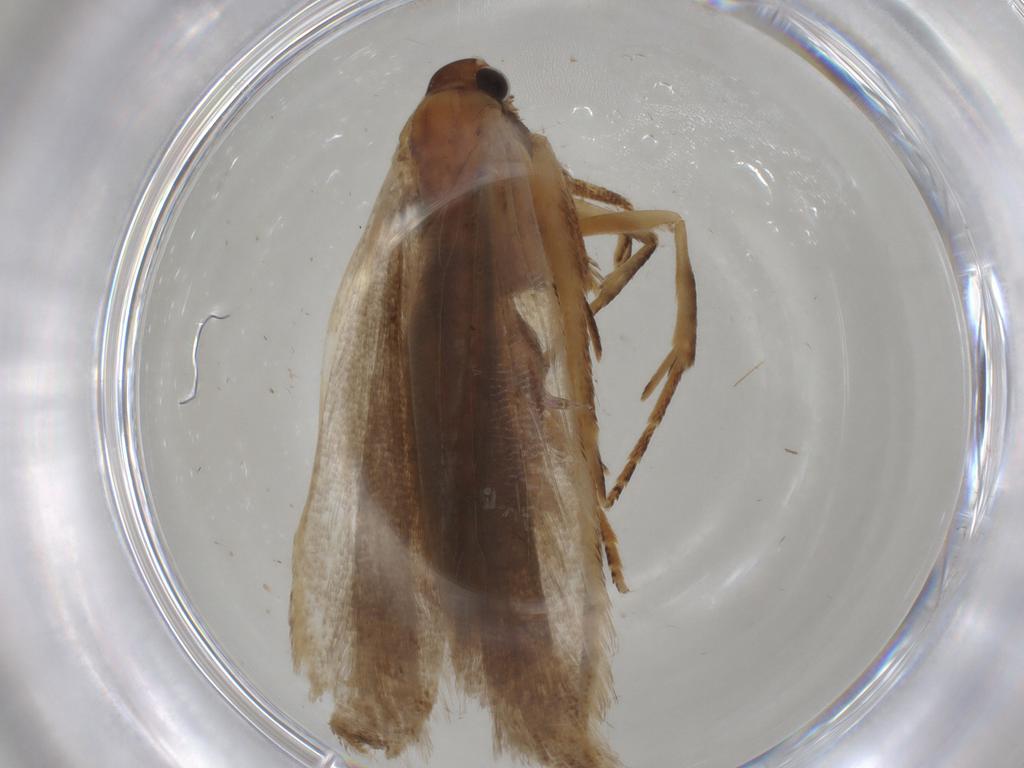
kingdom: Animalia
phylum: Arthropoda
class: Insecta
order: Lepidoptera
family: Gelechiidae
